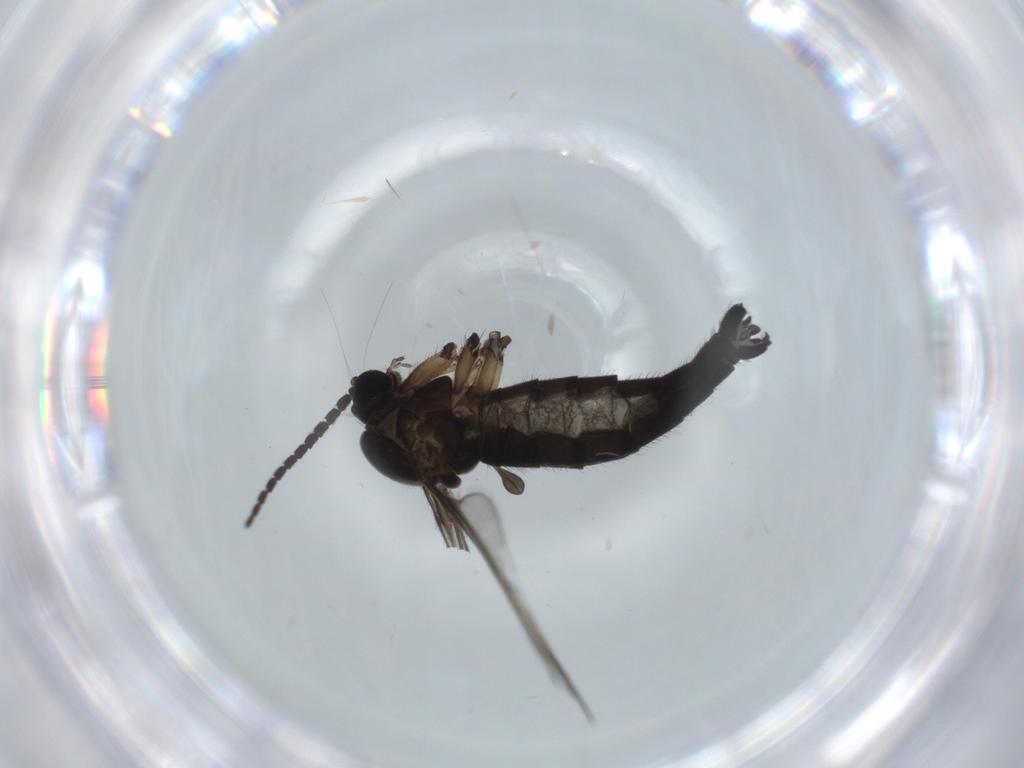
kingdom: Animalia
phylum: Arthropoda
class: Insecta
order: Diptera
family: Sciaridae
